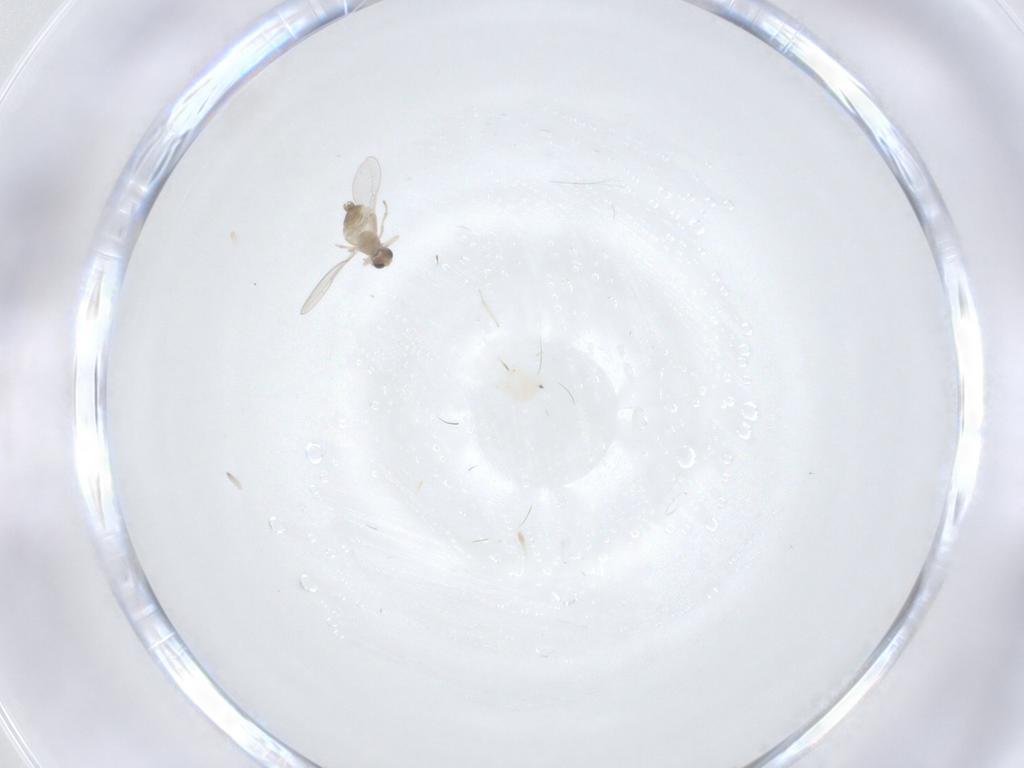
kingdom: Animalia
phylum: Arthropoda
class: Insecta
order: Diptera
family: Cecidomyiidae
